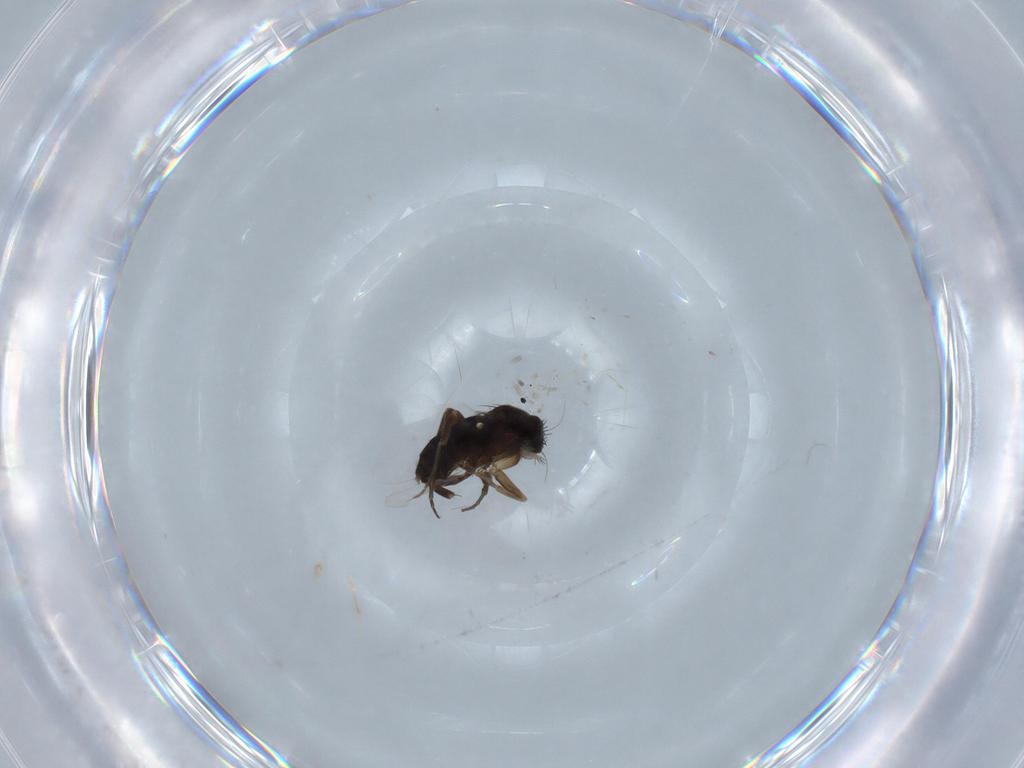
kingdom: Animalia
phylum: Arthropoda
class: Insecta
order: Diptera
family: Phoridae
